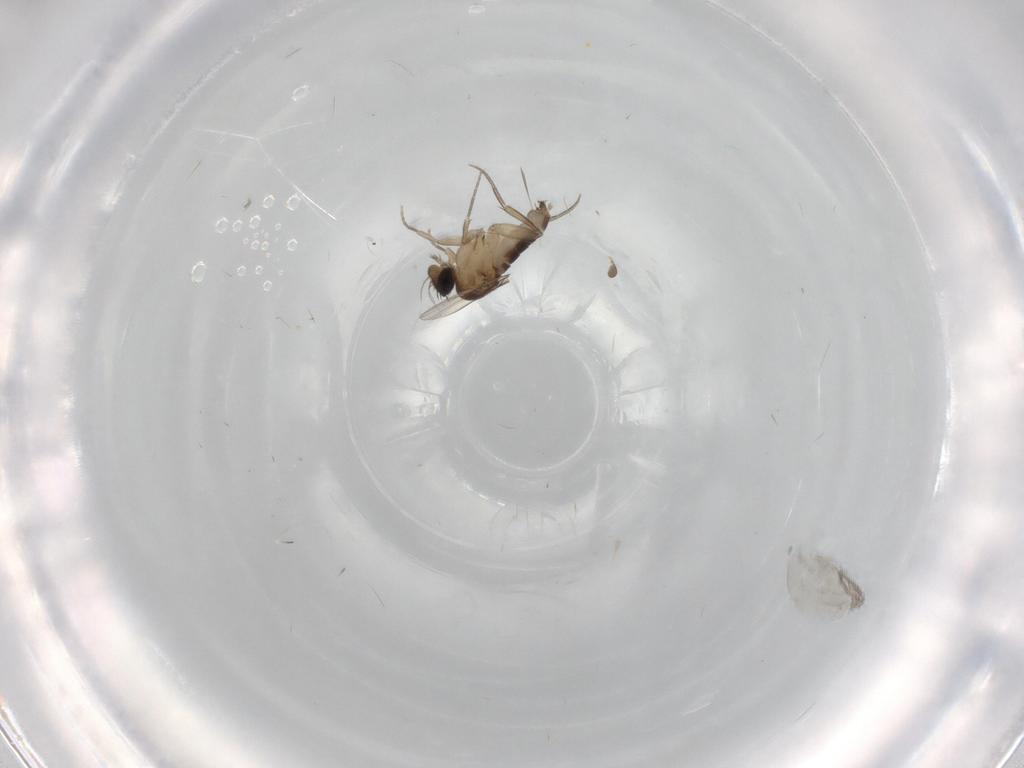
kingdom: Animalia
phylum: Arthropoda
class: Insecta
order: Diptera
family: Phoridae
